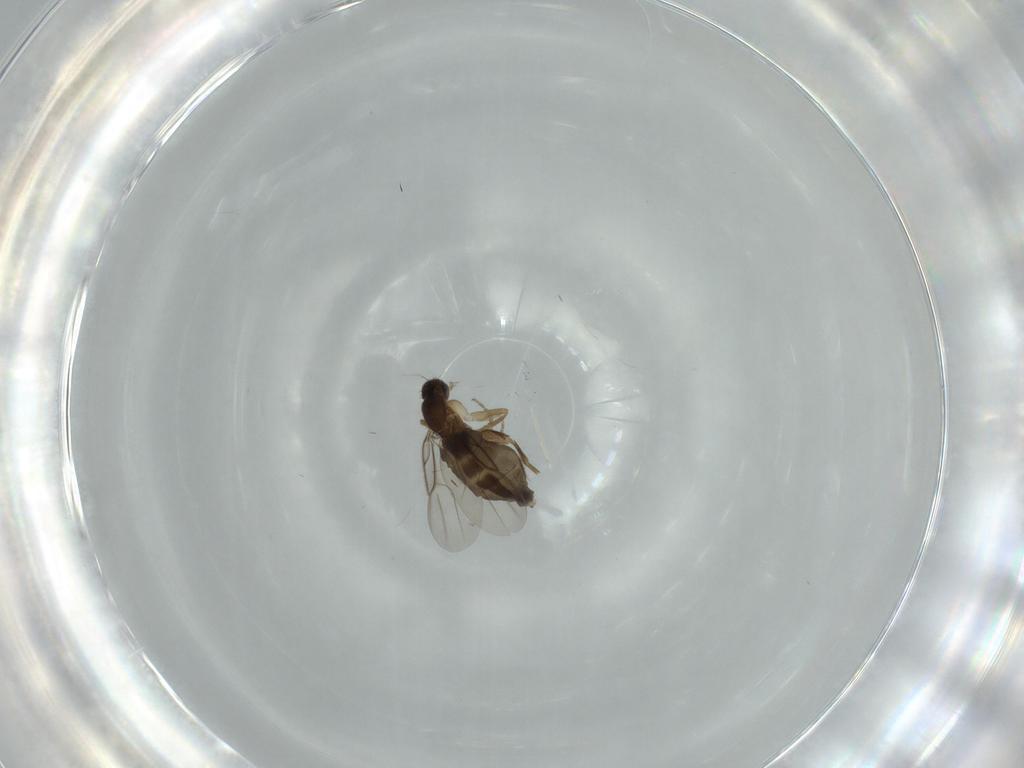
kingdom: Animalia
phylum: Arthropoda
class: Insecta
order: Diptera
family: Phoridae
